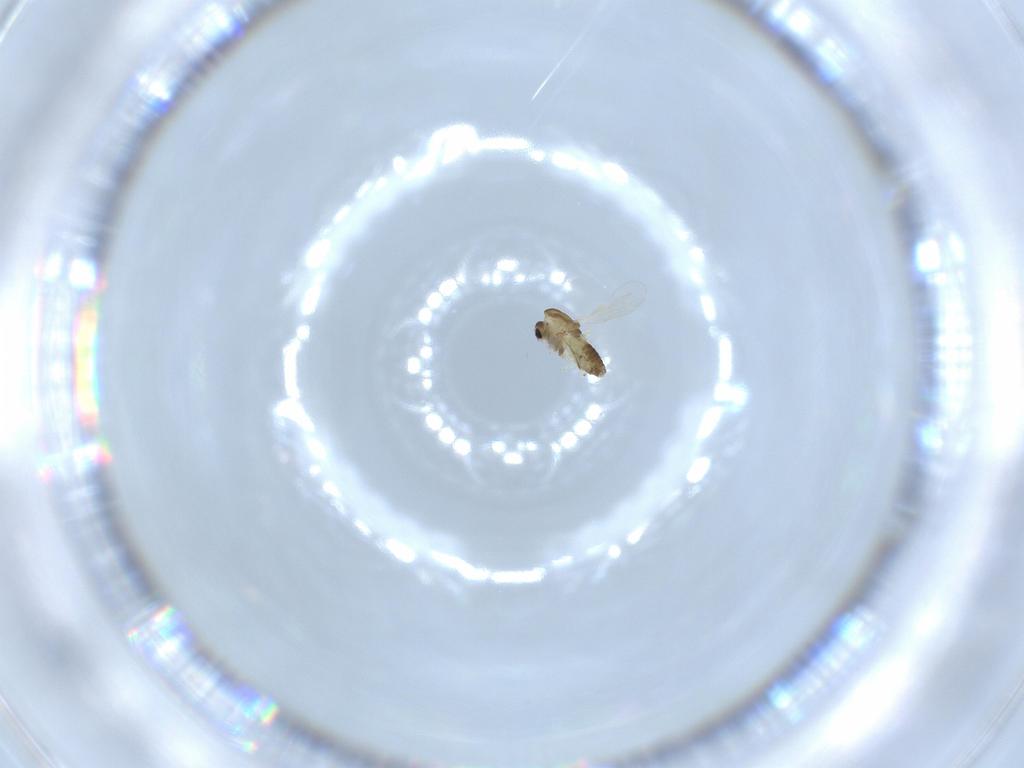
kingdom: Animalia
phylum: Arthropoda
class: Insecta
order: Diptera
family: Chironomidae
